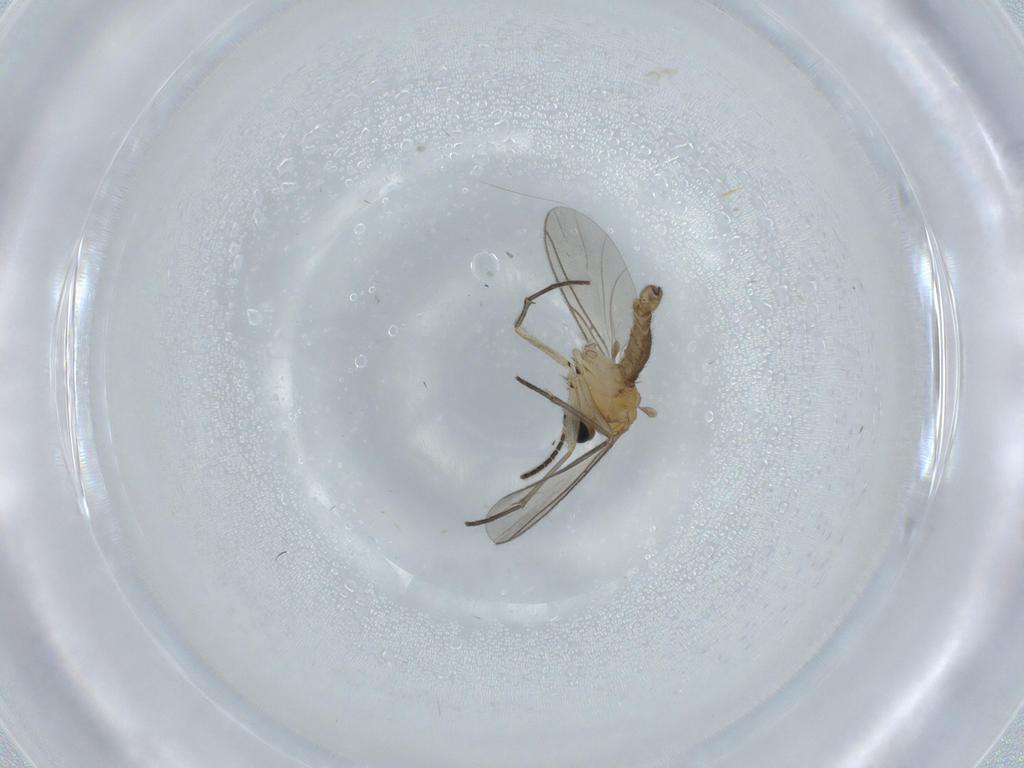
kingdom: Animalia
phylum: Arthropoda
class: Insecta
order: Diptera
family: Sciaridae
